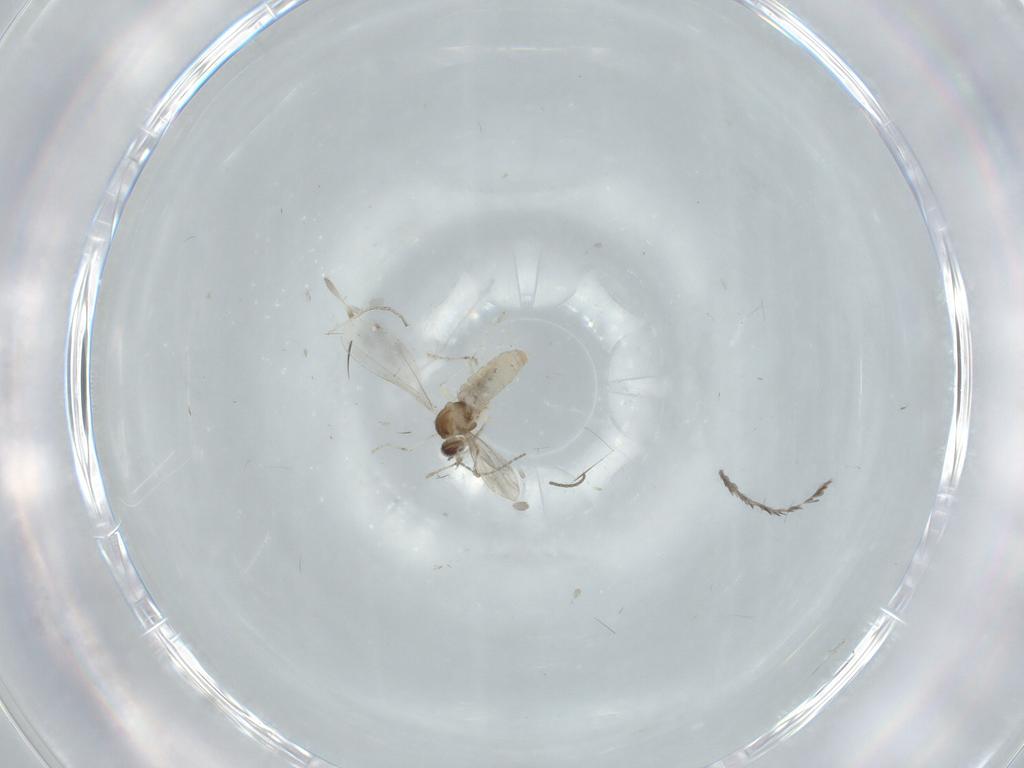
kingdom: Animalia
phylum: Arthropoda
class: Insecta
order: Diptera
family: Cecidomyiidae
